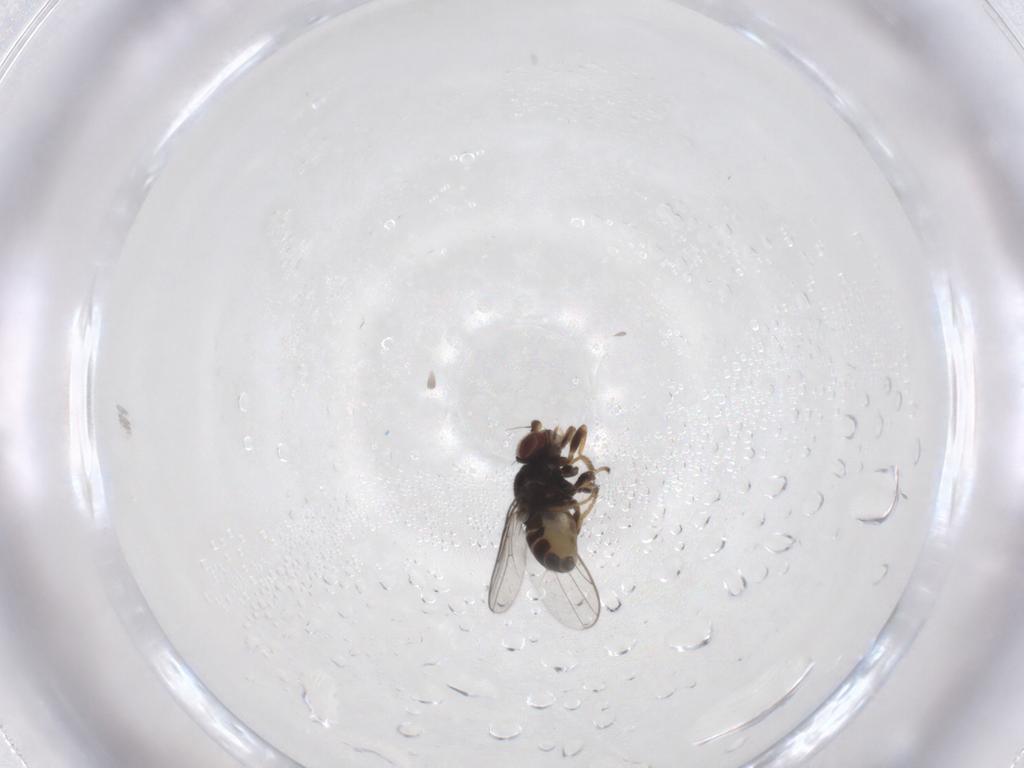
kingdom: Animalia
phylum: Arthropoda
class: Insecta
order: Diptera
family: Chloropidae
